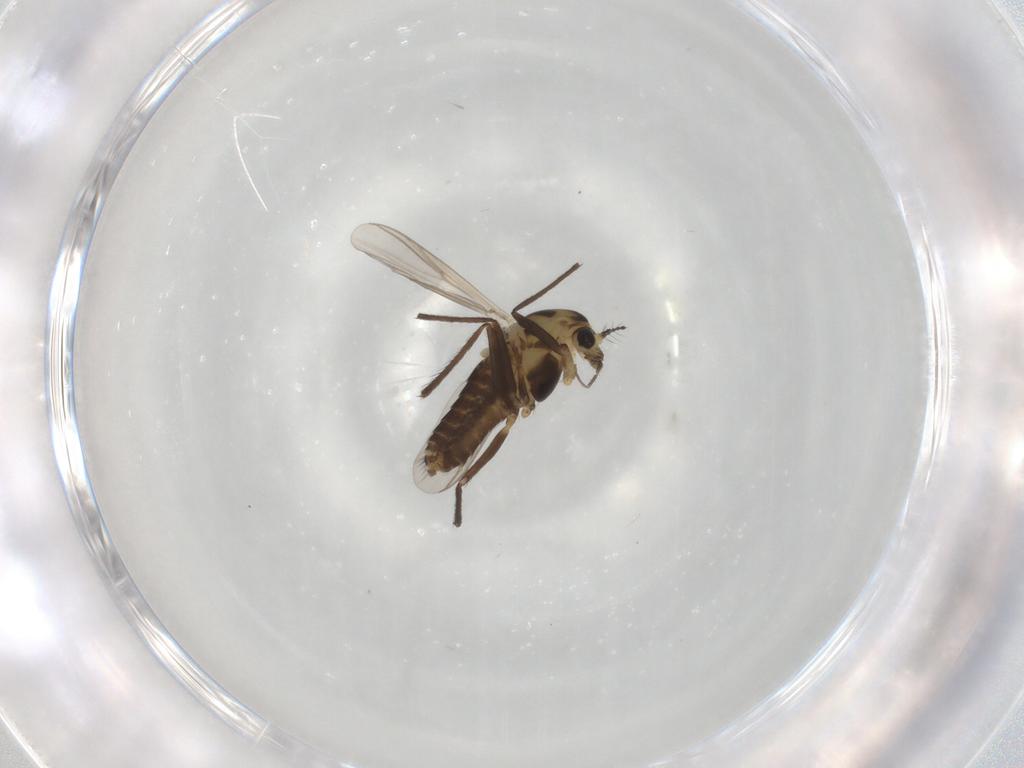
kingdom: Animalia
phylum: Arthropoda
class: Insecta
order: Diptera
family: Chironomidae
